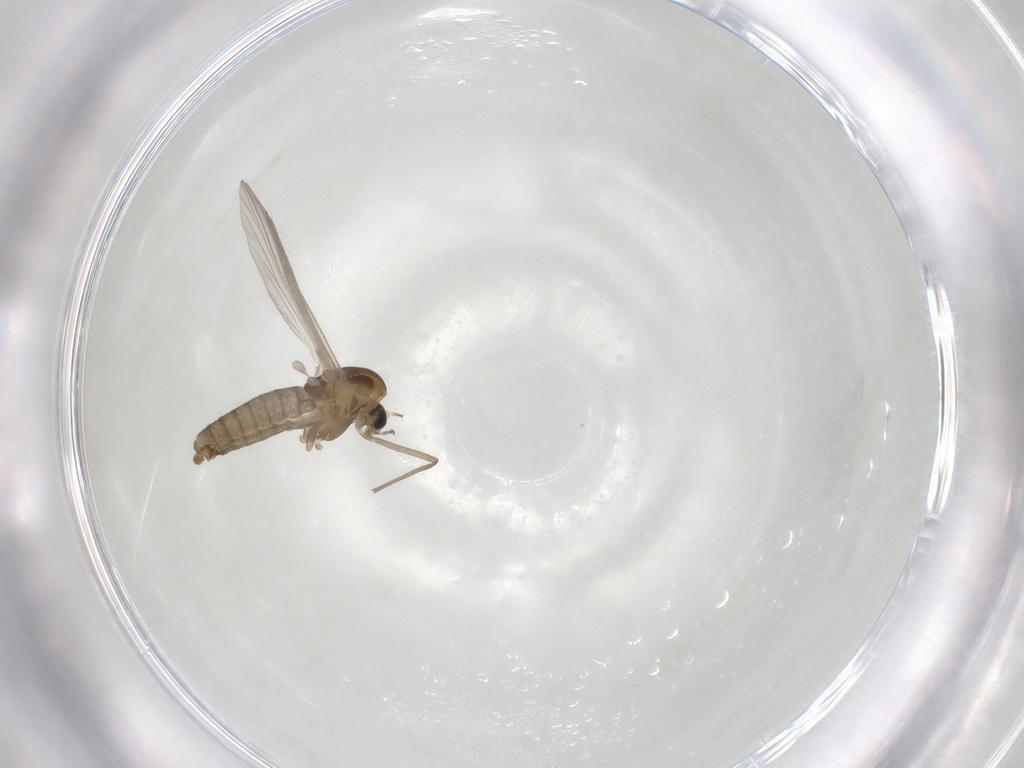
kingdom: Animalia
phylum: Arthropoda
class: Insecta
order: Diptera
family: Chironomidae
